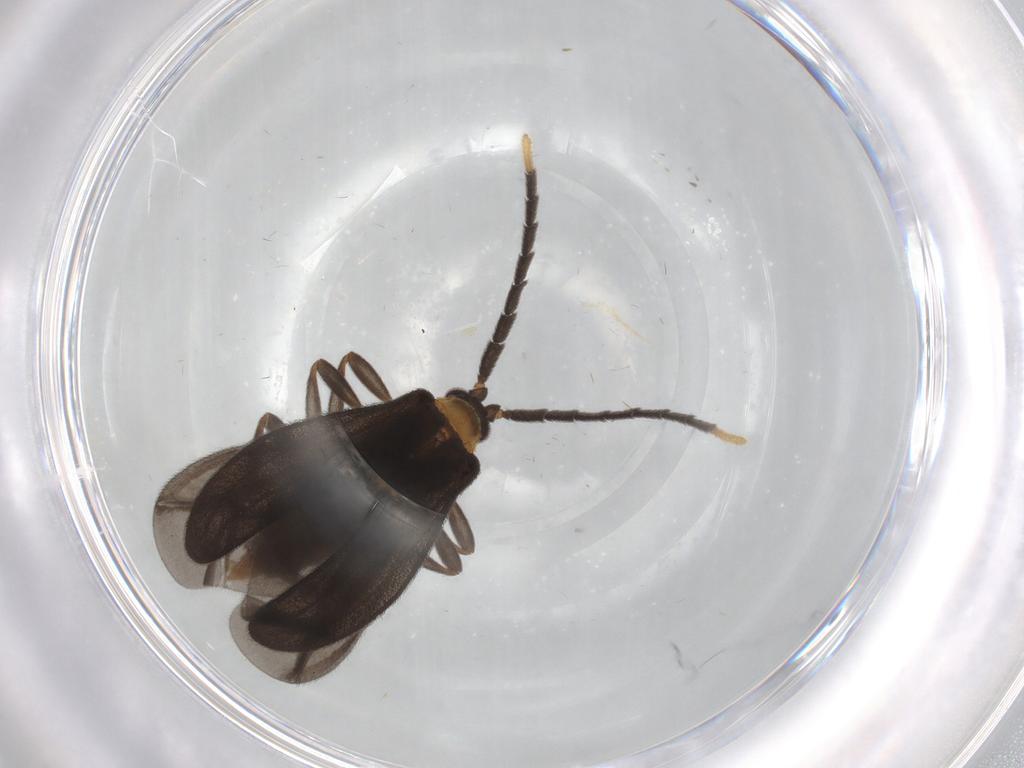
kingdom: Animalia
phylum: Arthropoda
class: Insecta
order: Coleoptera
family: Lycidae
